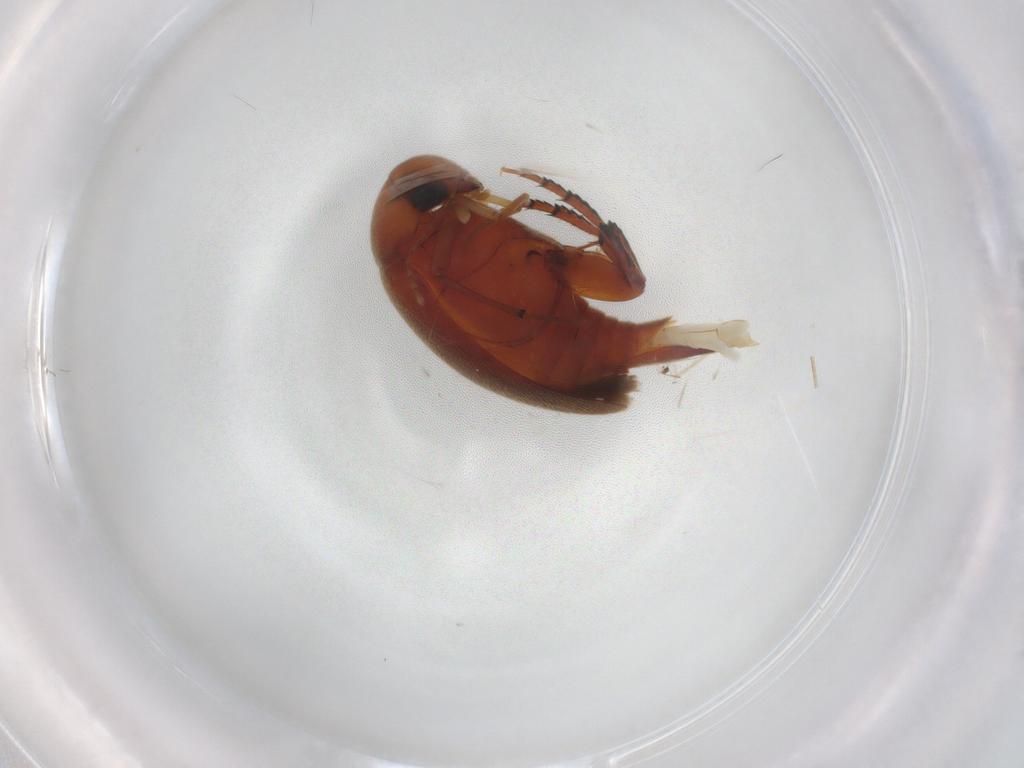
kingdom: Animalia
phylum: Arthropoda
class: Insecta
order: Coleoptera
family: Mordellidae
